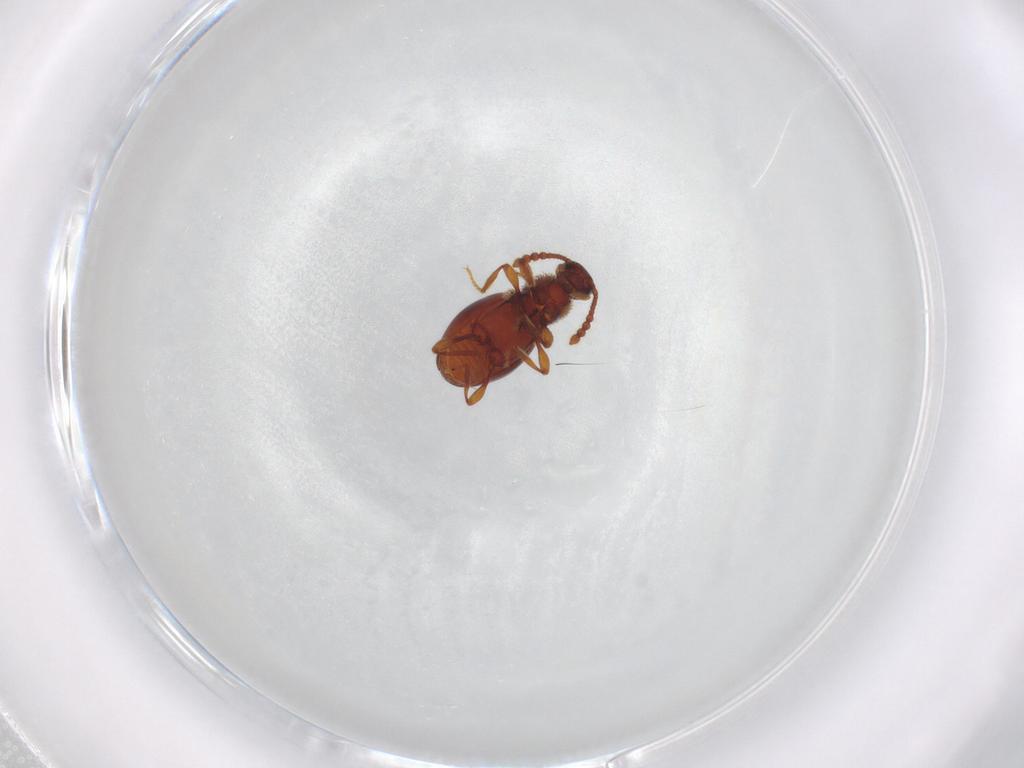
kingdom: Animalia
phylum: Arthropoda
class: Insecta
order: Coleoptera
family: Staphylinidae
